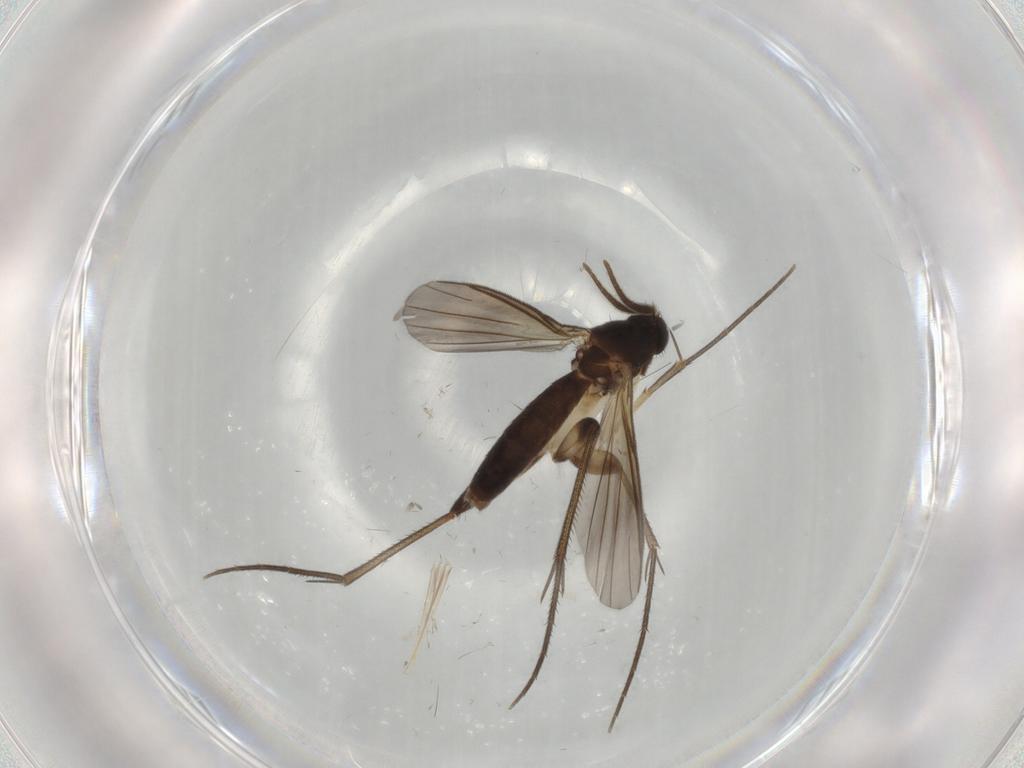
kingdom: Animalia
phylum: Arthropoda
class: Insecta
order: Diptera
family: Mycetophilidae
